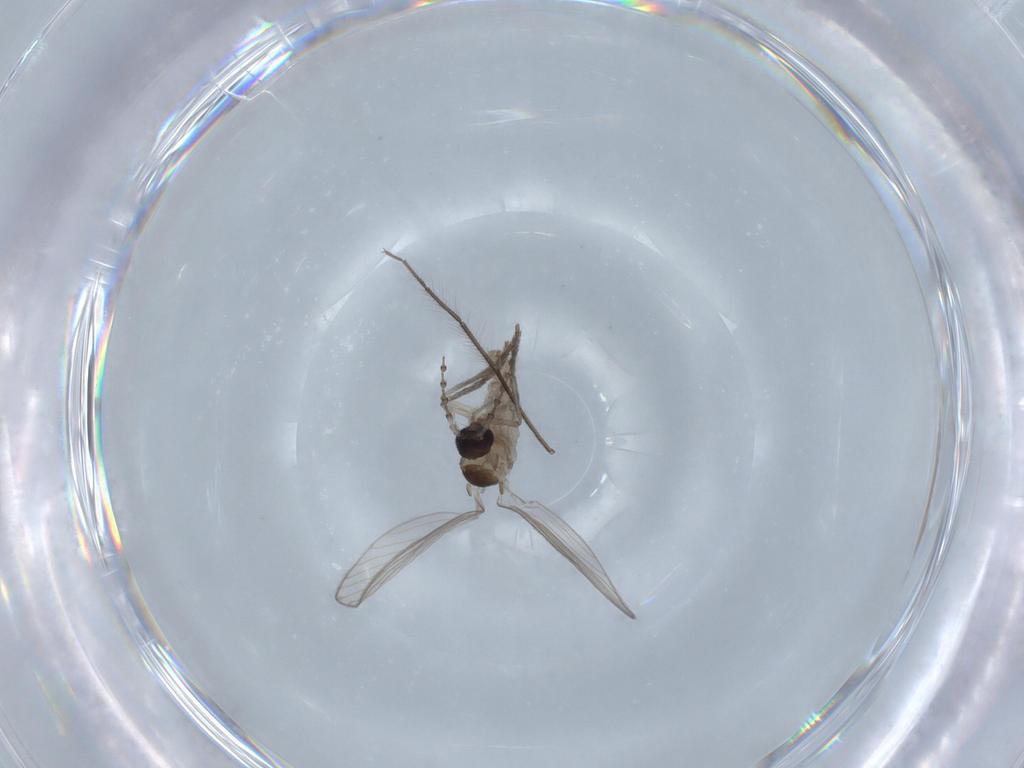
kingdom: Animalia
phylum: Arthropoda
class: Insecta
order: Diptera
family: Psychodidae
